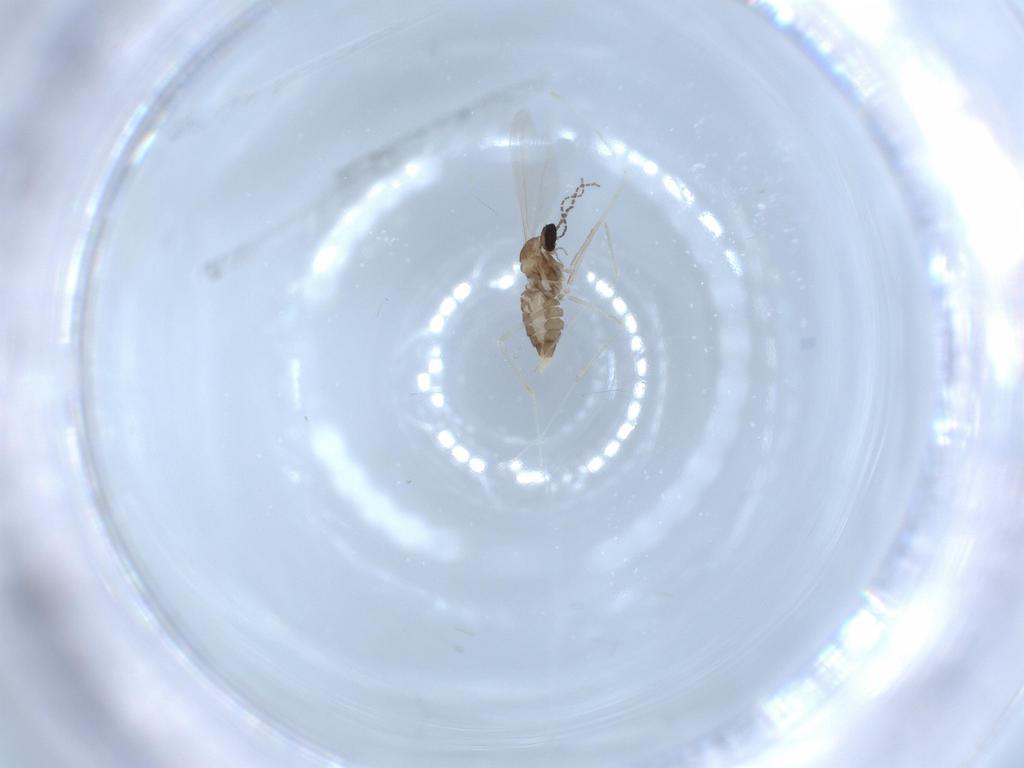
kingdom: Animalia
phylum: Arthropoda
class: Insecta
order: Diptera
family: Cecidomyiidae
